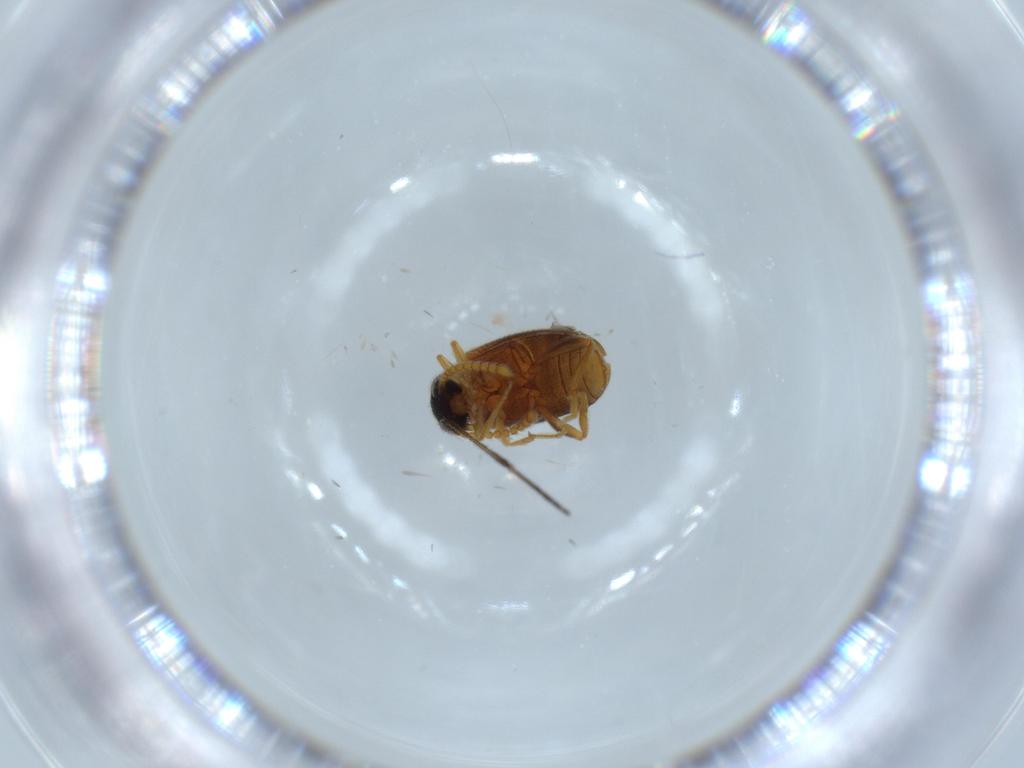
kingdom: Animalia
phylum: Arthropoda
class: Insecta
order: Coleoptera
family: Aderidae
